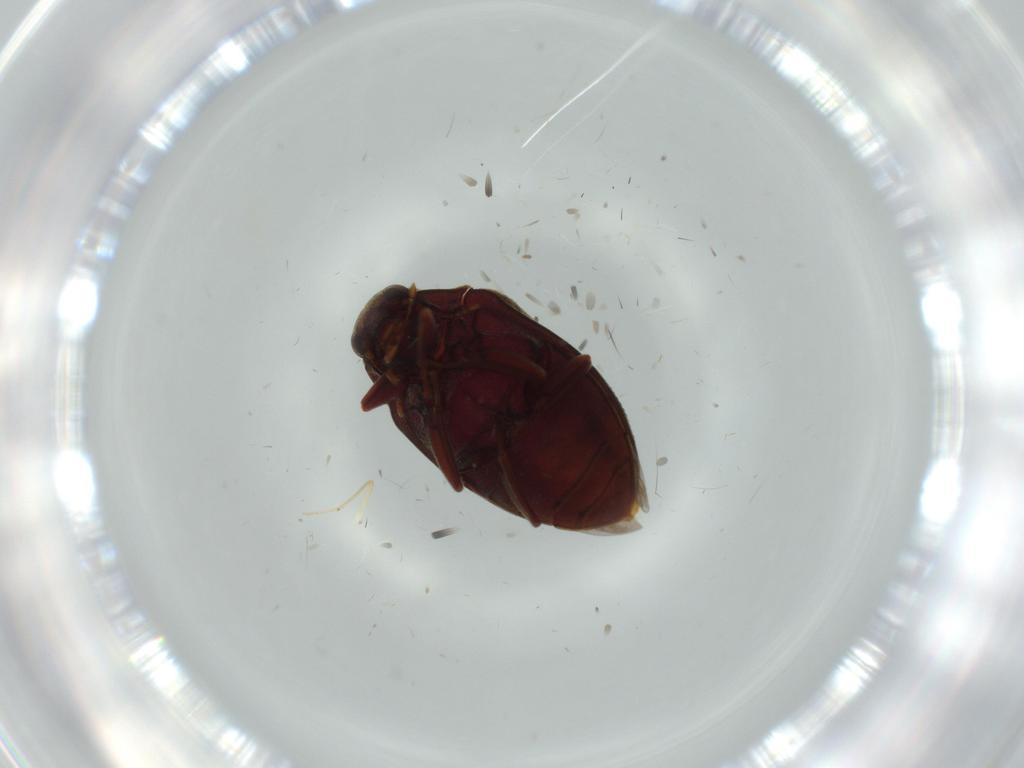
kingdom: Animalia
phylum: Arthropoda
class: Insecta
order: Coleoptera
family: Limnichidae
